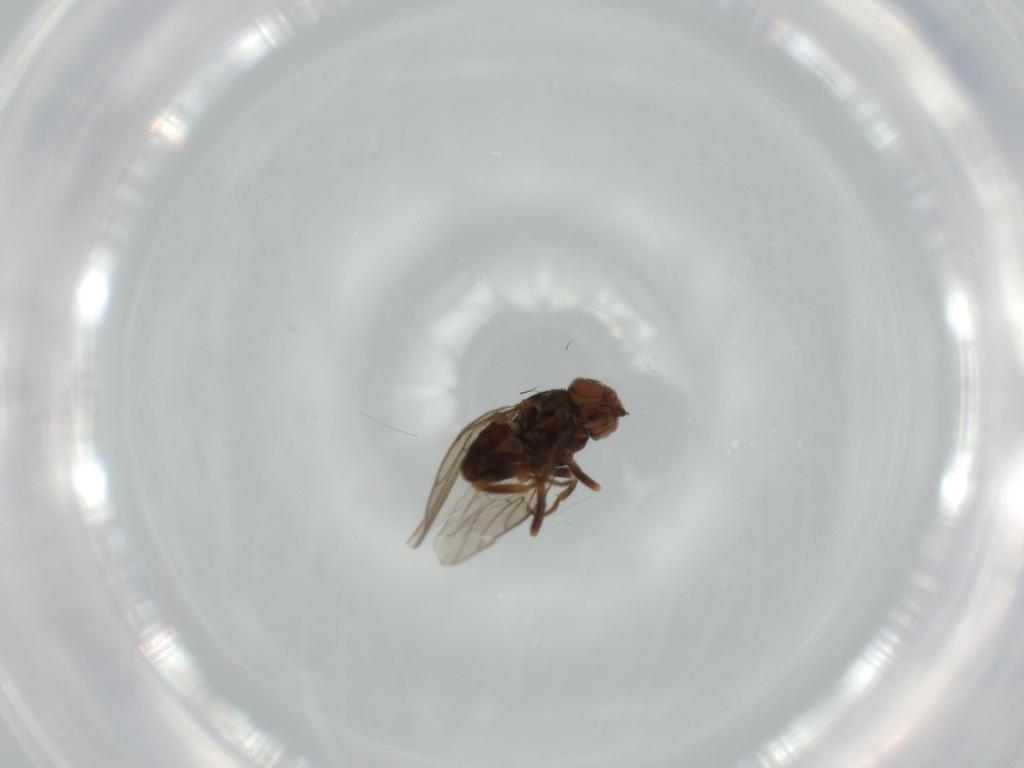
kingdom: Animalia
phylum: Arthropoda
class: Insecta
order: Diptera
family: Chloropidae
